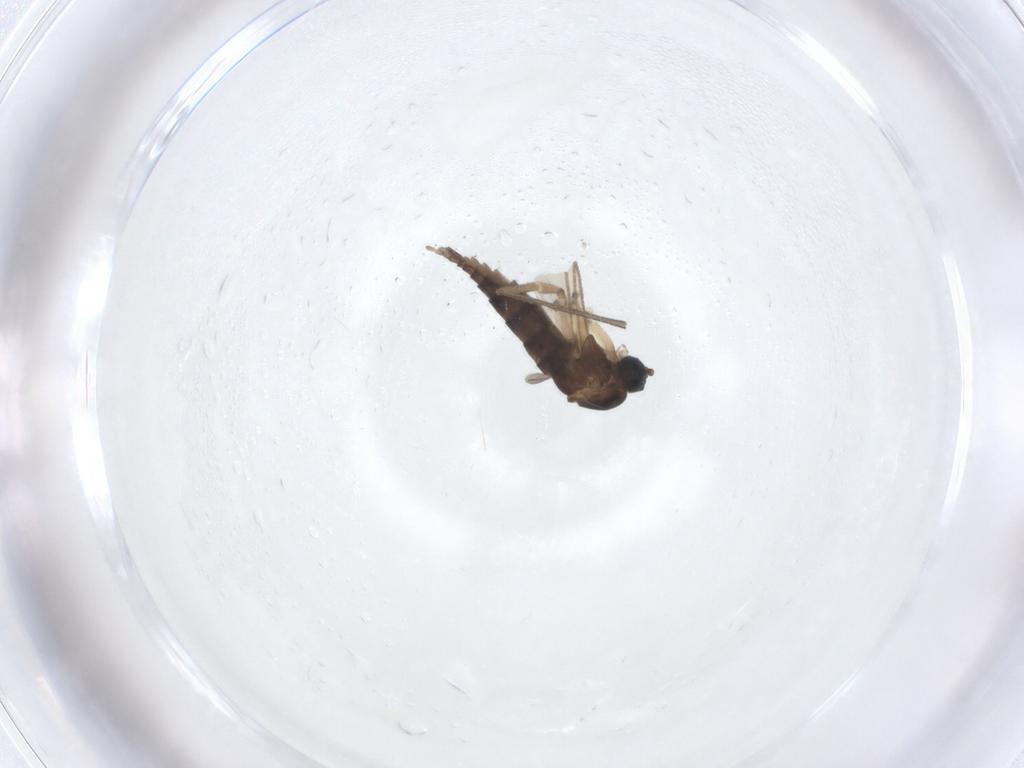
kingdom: Animalia
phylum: Arthropoda
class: Insecta
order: Diptera
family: Sciaridae
